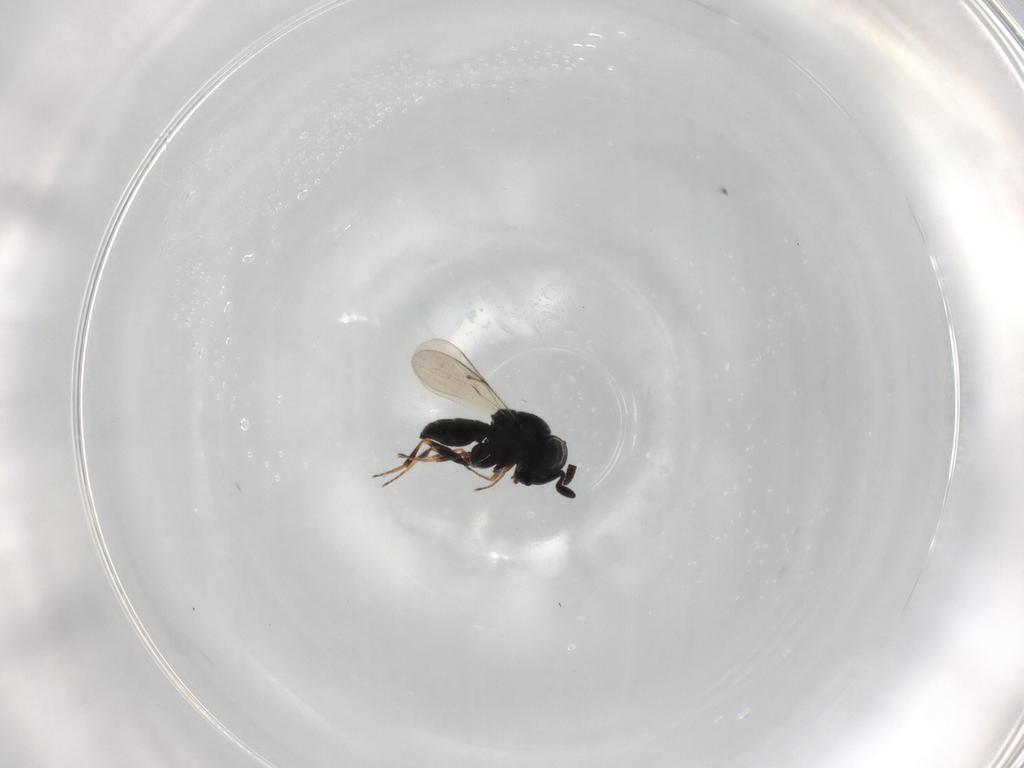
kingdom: Animalia
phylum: Arthropoda
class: Insecta
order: Hymenoptera
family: Scelionidae
